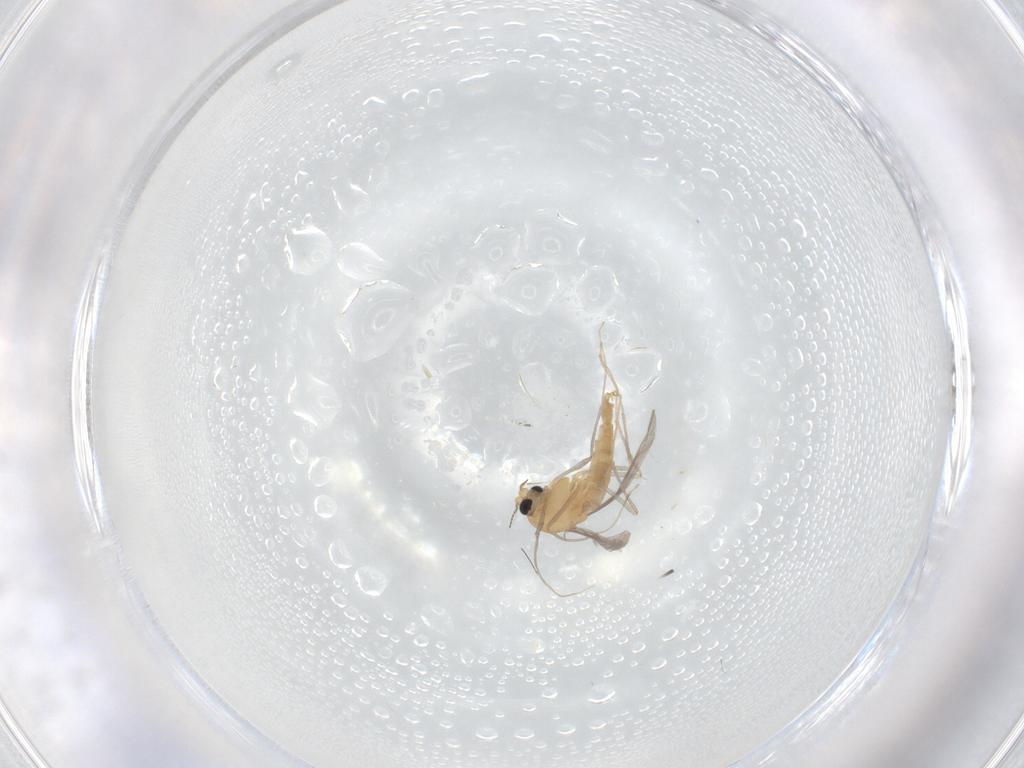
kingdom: Animalia
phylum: Arthropoda
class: Insecta
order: Diptera
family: Chironomidae
